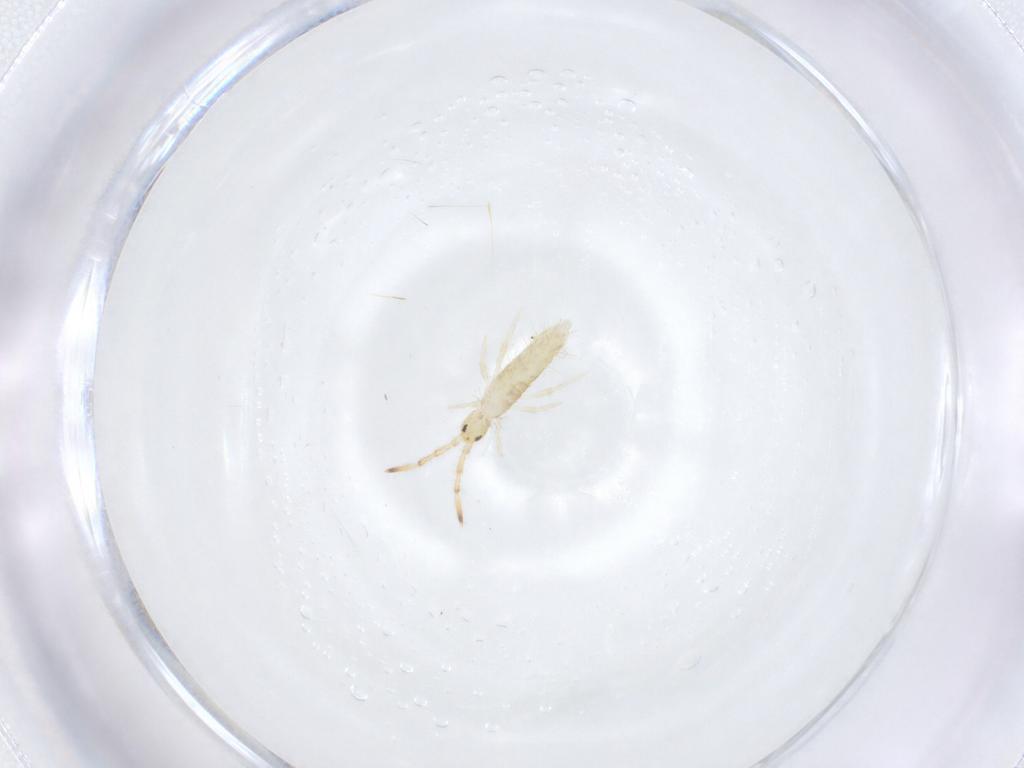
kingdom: Animalia
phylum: Arthropoda
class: Collembola
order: Entomobryomorpha
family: Entomobryidae
